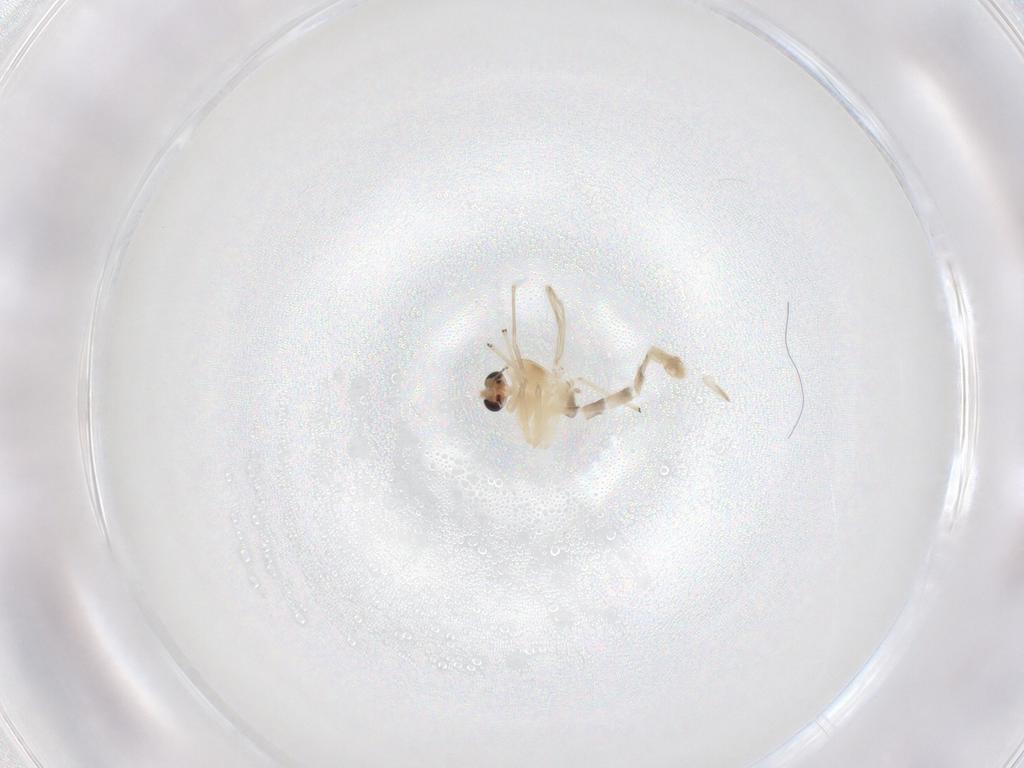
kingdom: Animalia
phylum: Arthropoda
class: Insecta
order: Diptera
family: Chironomidae
